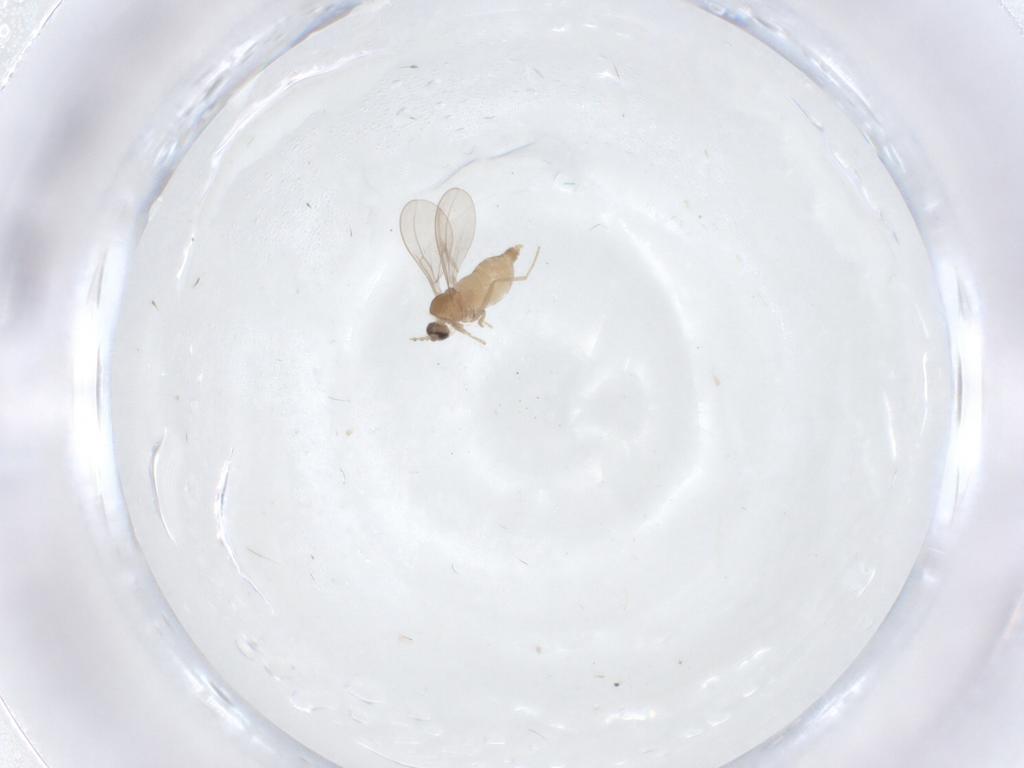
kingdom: Animalia
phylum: Arthropoda
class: Insecta
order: Diptera
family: Cecidomyiidae
